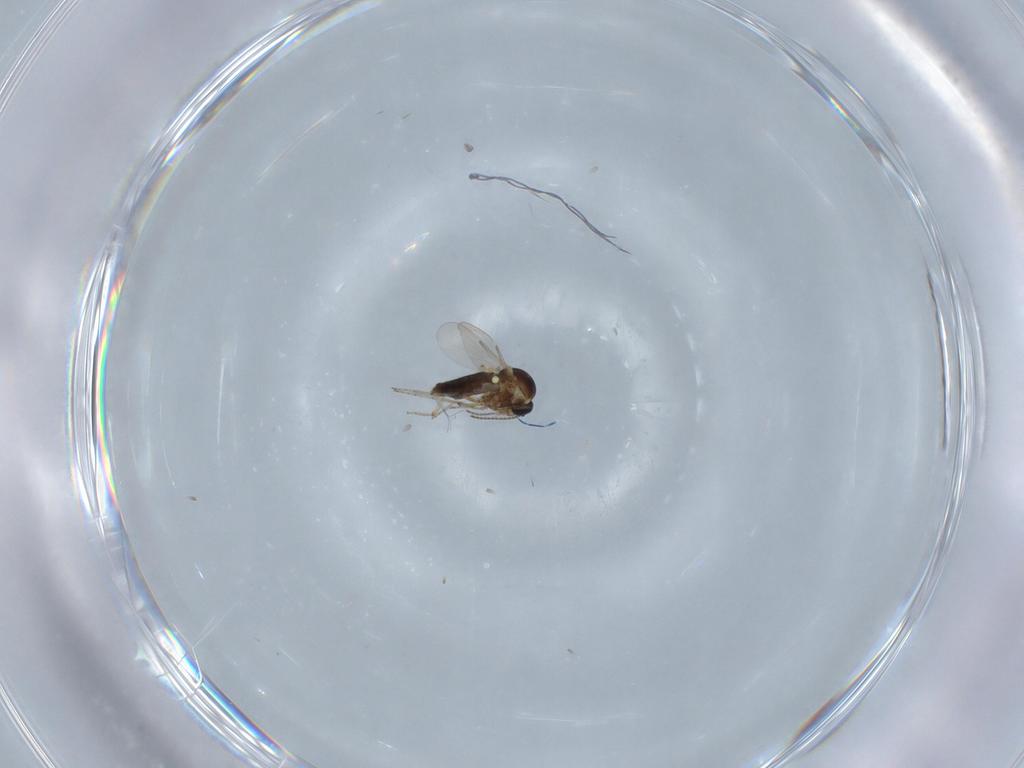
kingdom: Animalia
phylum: Arthropoda
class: Insecta
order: Diptera
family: Ceratopogonidae
